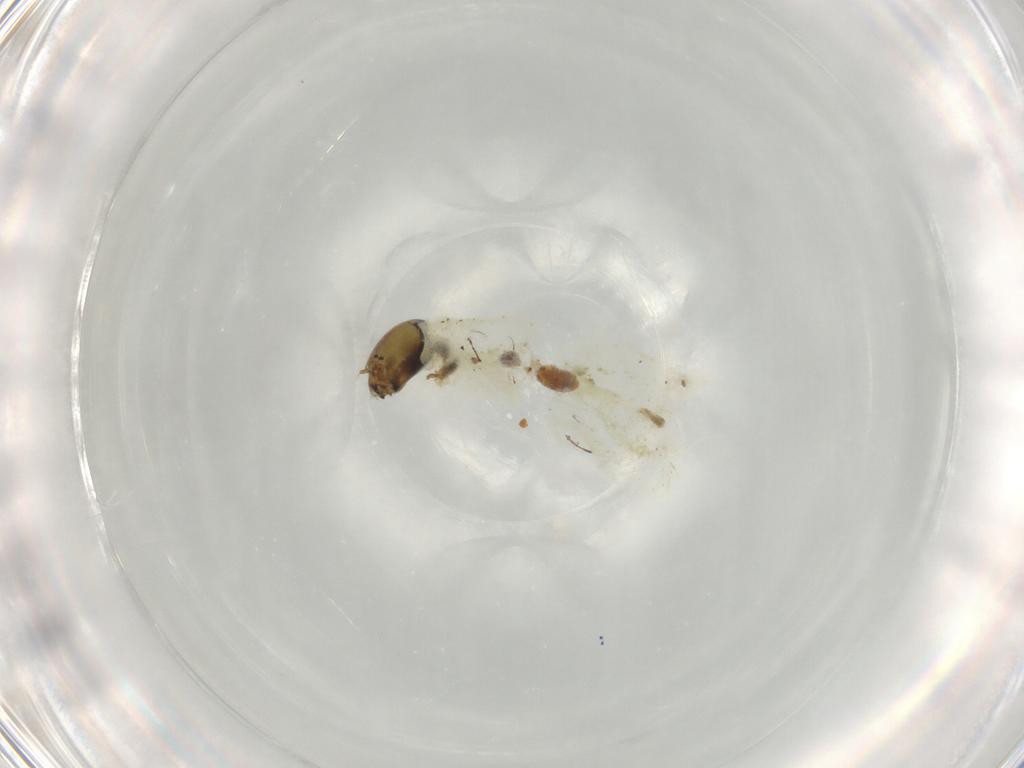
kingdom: Animalia
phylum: Arthropoda
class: Insecta
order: Diptera
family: Chironomidae
